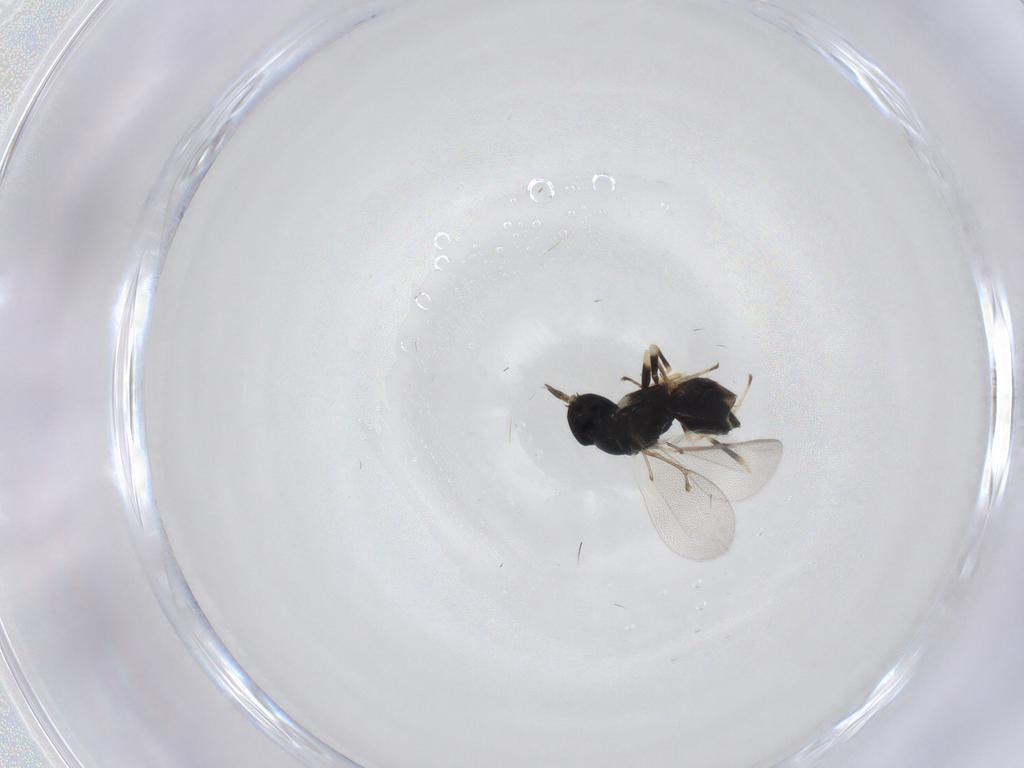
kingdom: Animalia
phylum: Arthropoda
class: Insecta
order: Hymenoptera
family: Eulophidae
